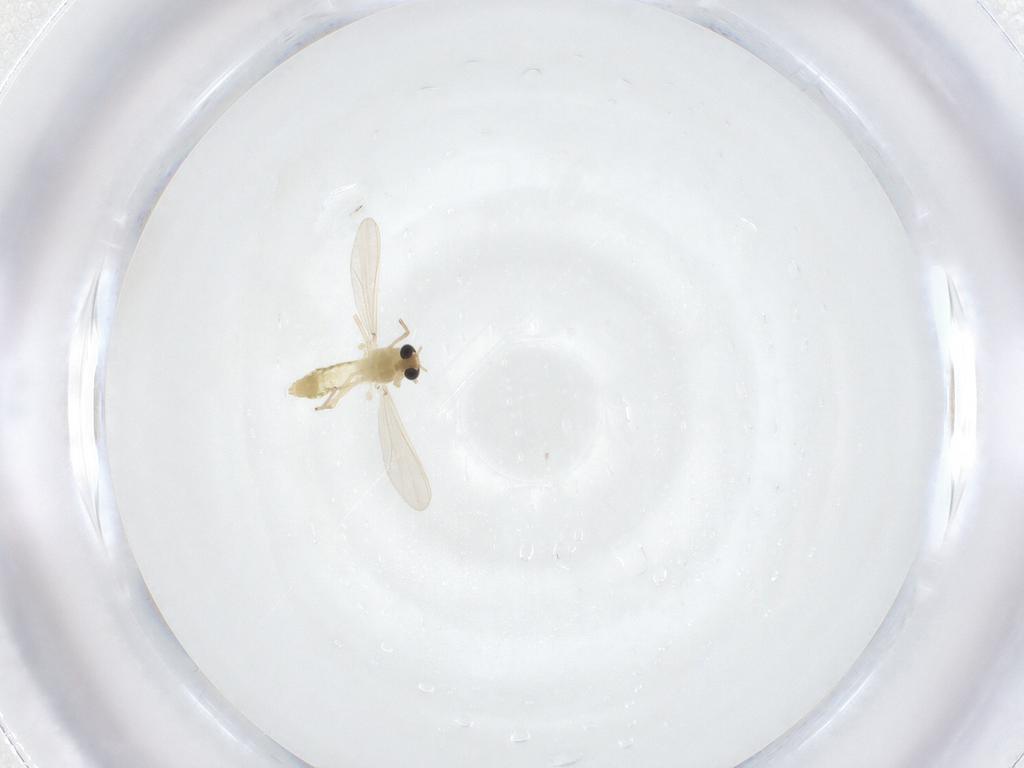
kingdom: Animalia
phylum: Arthropoda
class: Insecta
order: Diptera
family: Chironomidae
